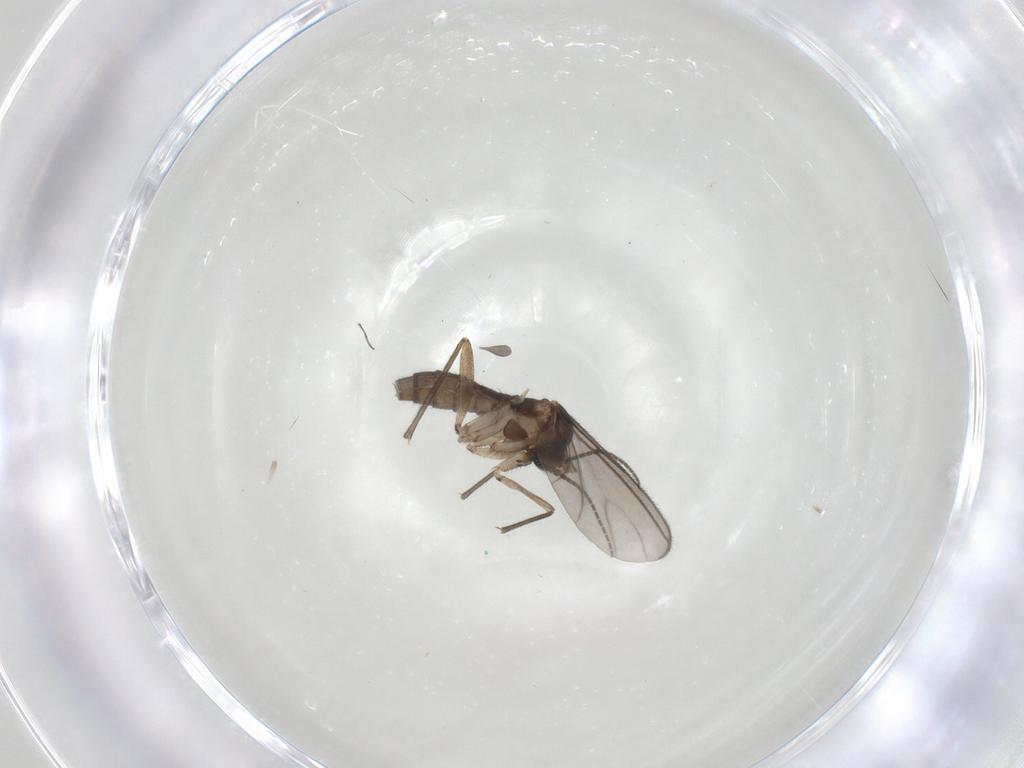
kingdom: Animalia
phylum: Arthropoda
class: Insecta
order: Diptera
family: Sciaridae
